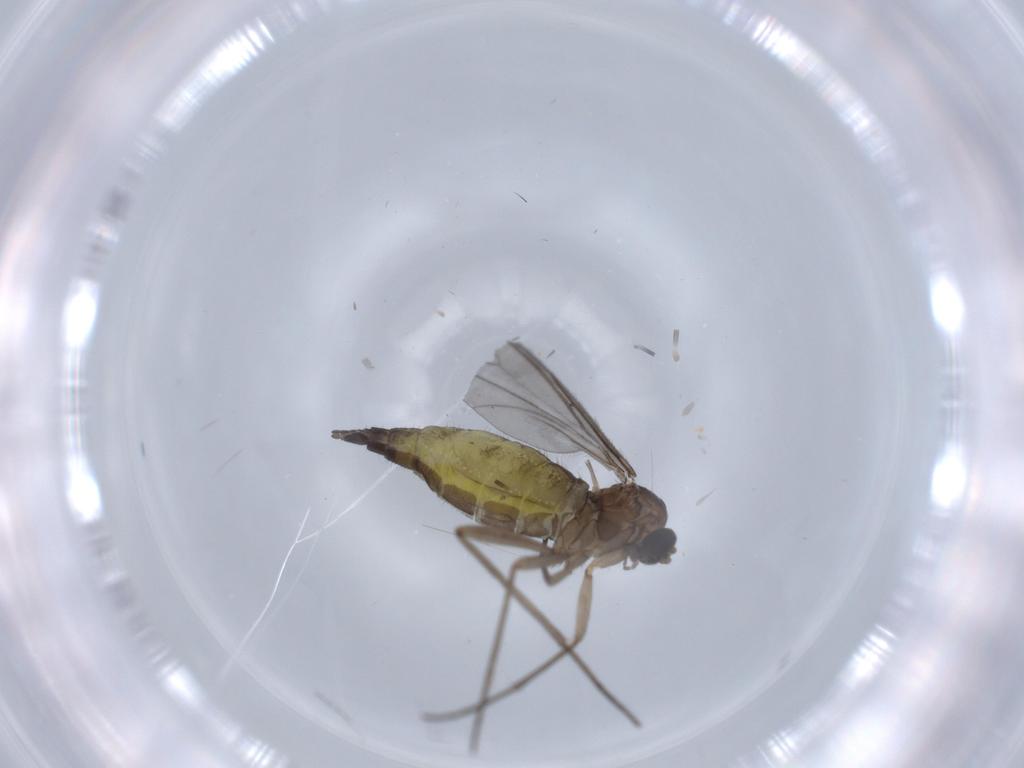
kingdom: Animalia
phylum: Arthropoda
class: Insecta
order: Diptera
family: Sciaridae
